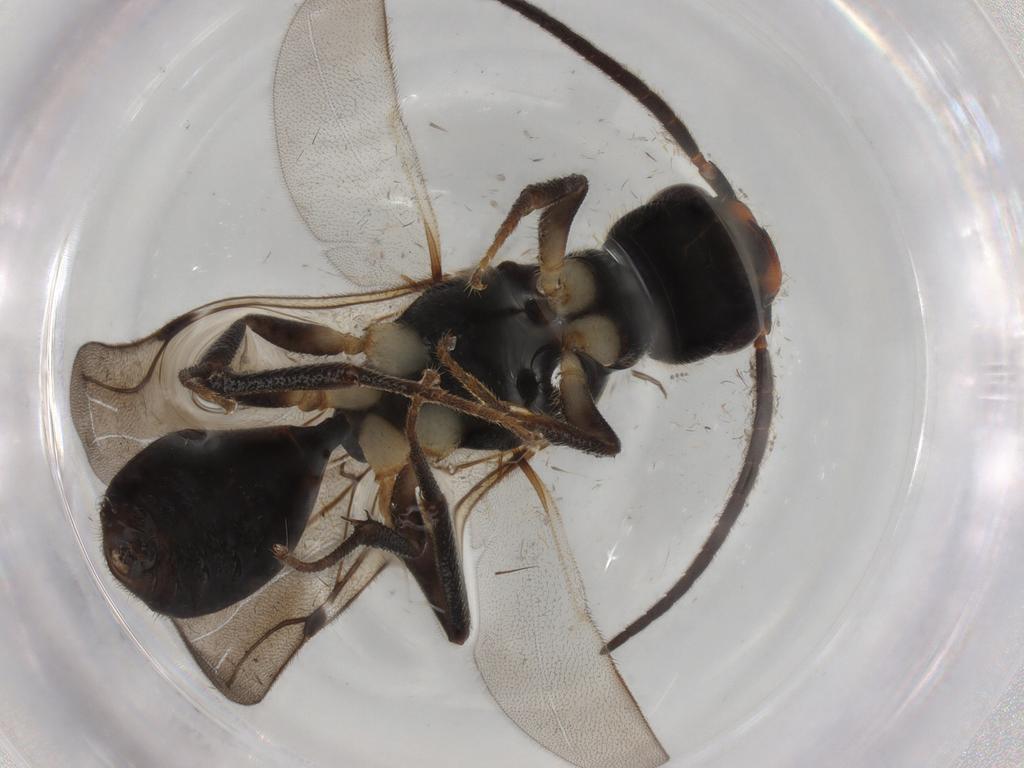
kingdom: Animalia
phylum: Arthropoda
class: Insecta
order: Hymenoptera
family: Bethylidae
